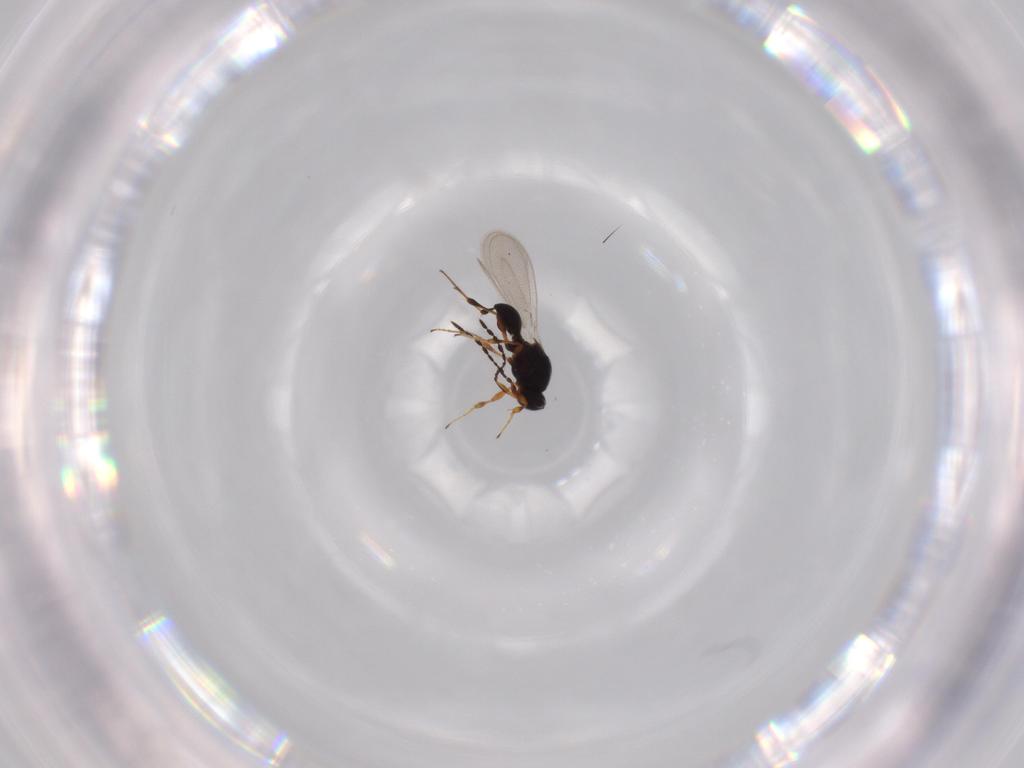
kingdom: Animalia
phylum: Arthropoda
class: Insecta
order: Hymenoptera
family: Platygastridae
